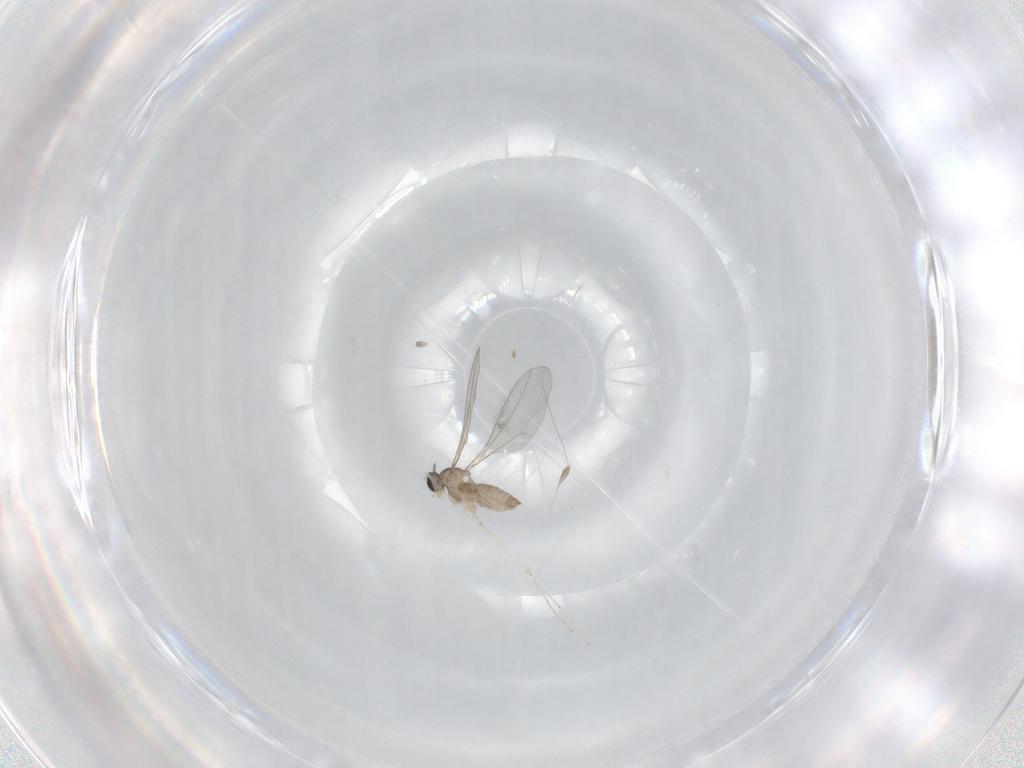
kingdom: Animalia
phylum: Arthropoda
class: Insecta
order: Diptera
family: Cecidomyiidae
